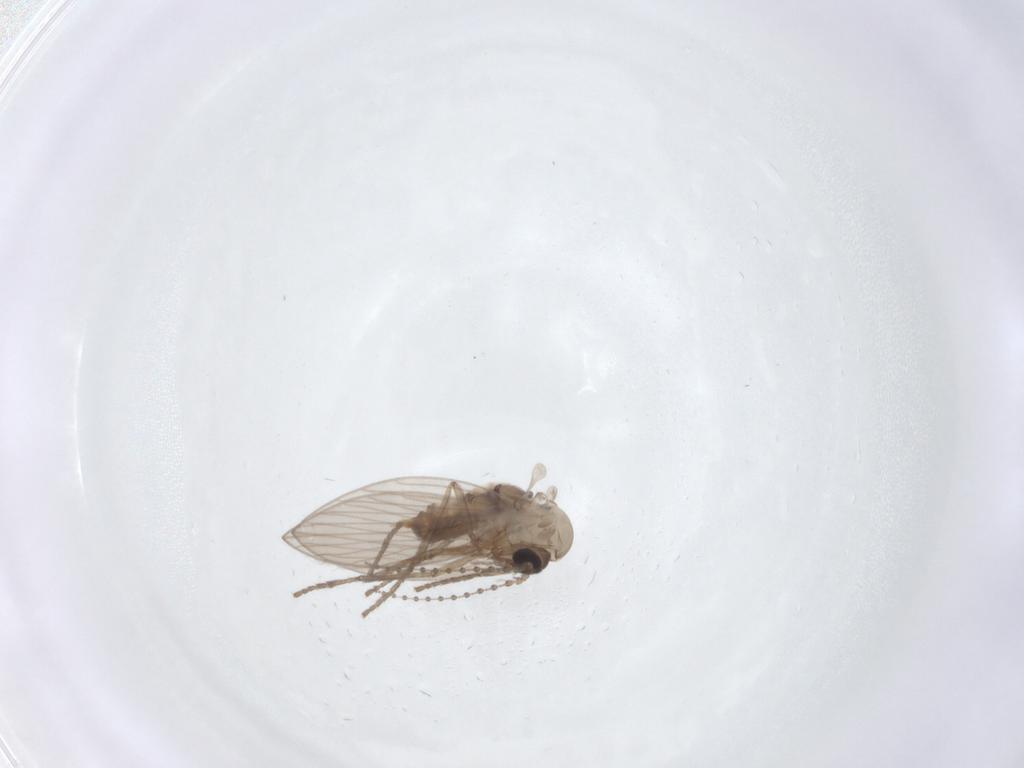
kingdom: Animalia
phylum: Arthropoda
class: Insecta
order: Diptera
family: Psychodidae
